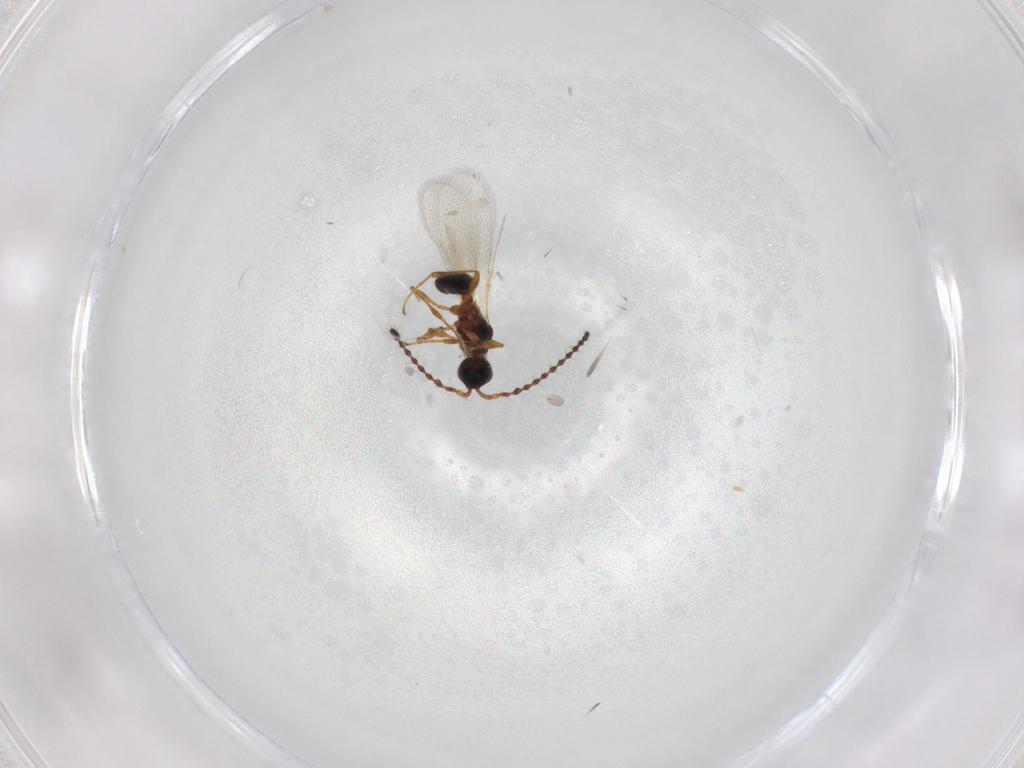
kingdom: Animalia
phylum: Arthropoda
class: Insecta
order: Hymenoptera
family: Diapriidae
